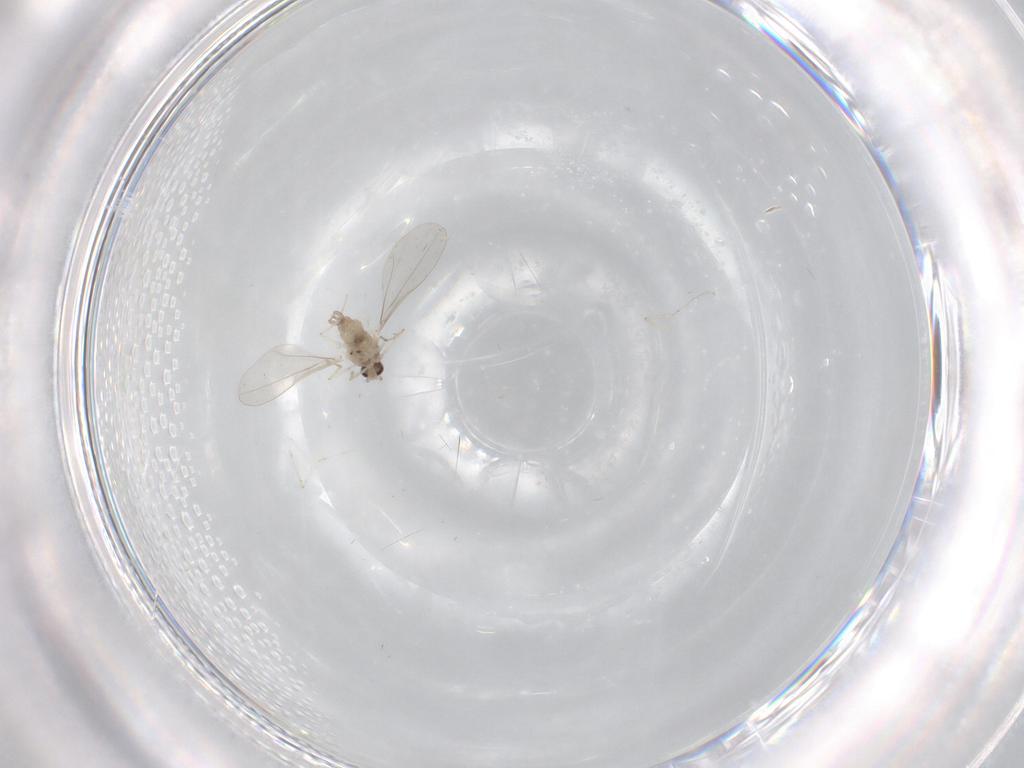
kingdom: Animalia
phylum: Arthropoda
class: Insecta
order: Diptera
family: Cecidomyiidae
